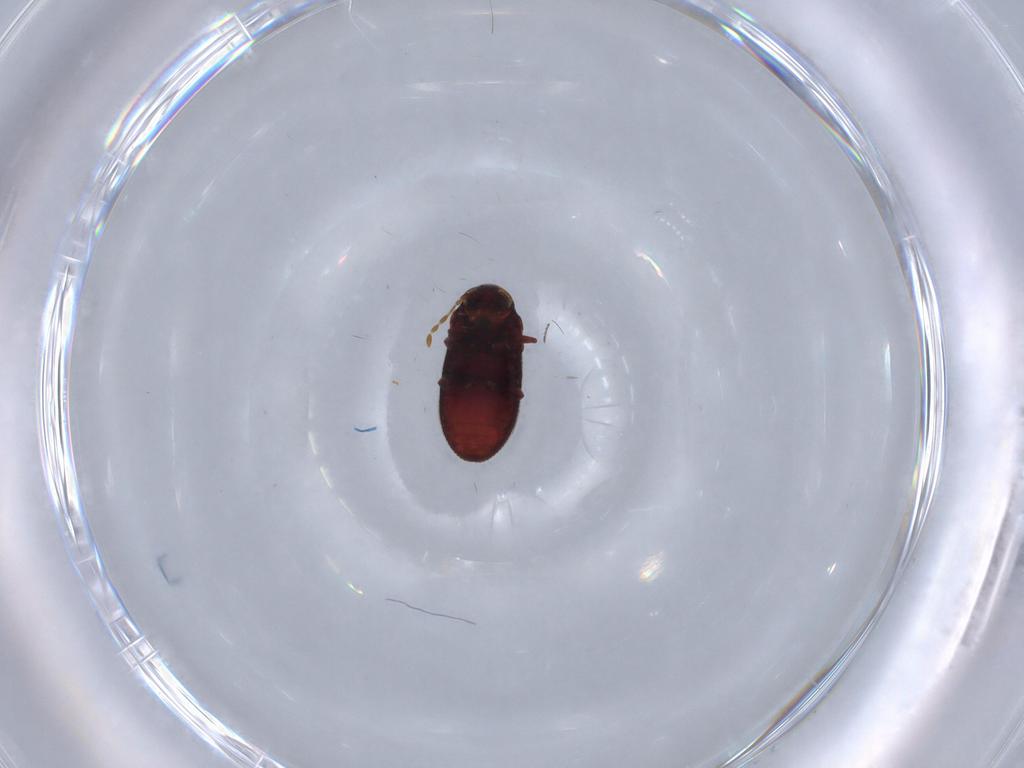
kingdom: Animalia
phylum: Arthropoda
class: Insecta
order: Coleoptera
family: Anobiidae
